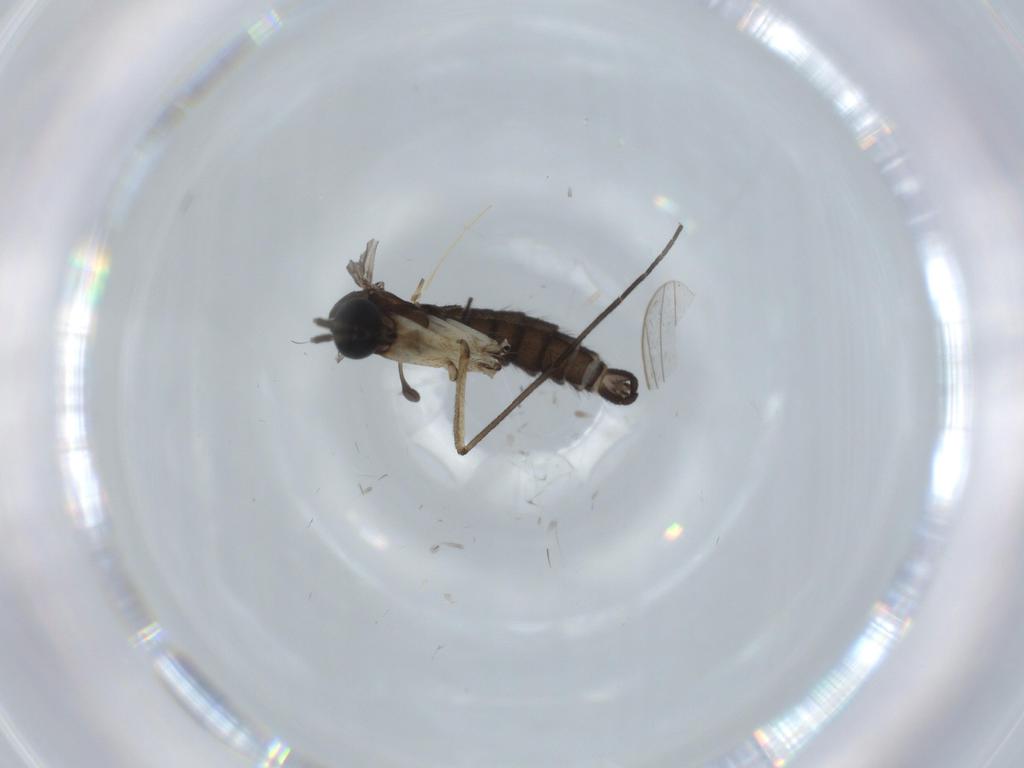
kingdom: Animalia
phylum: Arthropoda
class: Insecta
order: Diptera
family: Sciaridae
